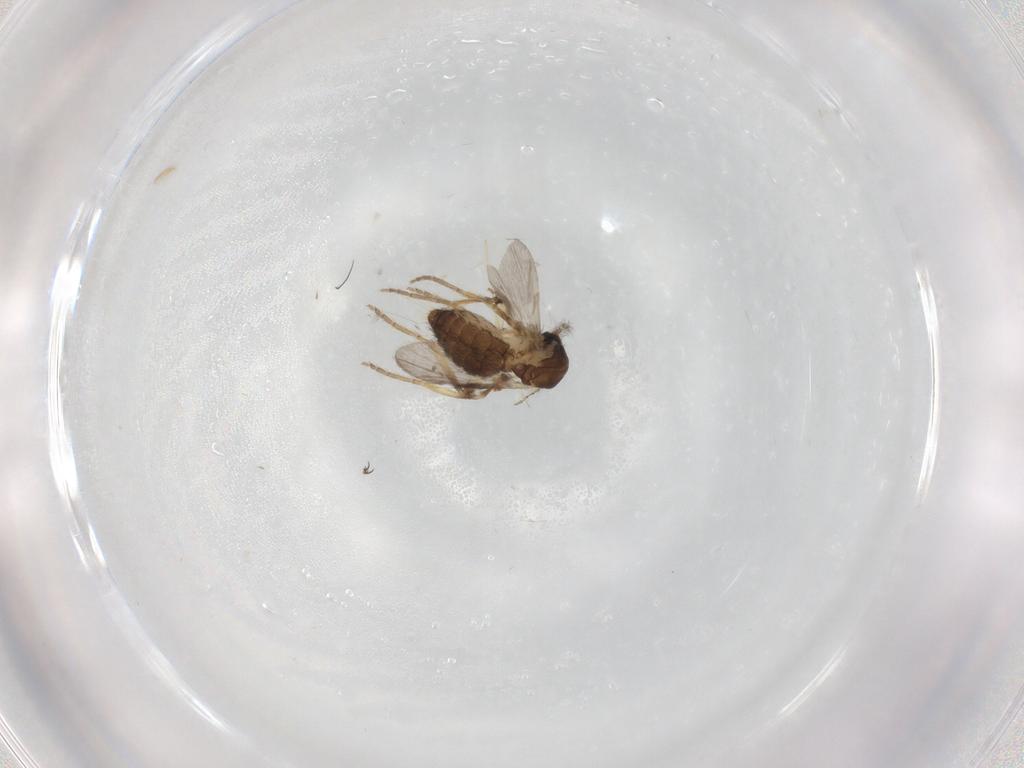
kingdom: Animalia
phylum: Arthropoda
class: Insecta
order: Diptera
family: Ceratopogonidae
